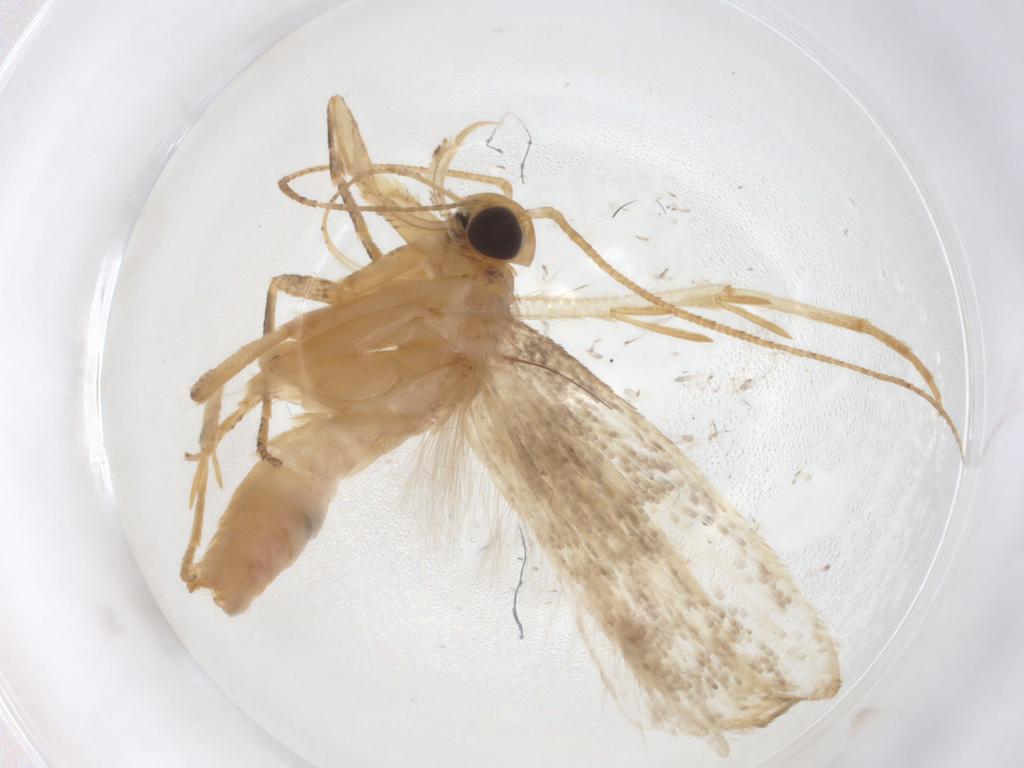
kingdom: Animalia
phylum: Arthropoda
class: Insecta
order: Lepidoptera
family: Gelechiidae
